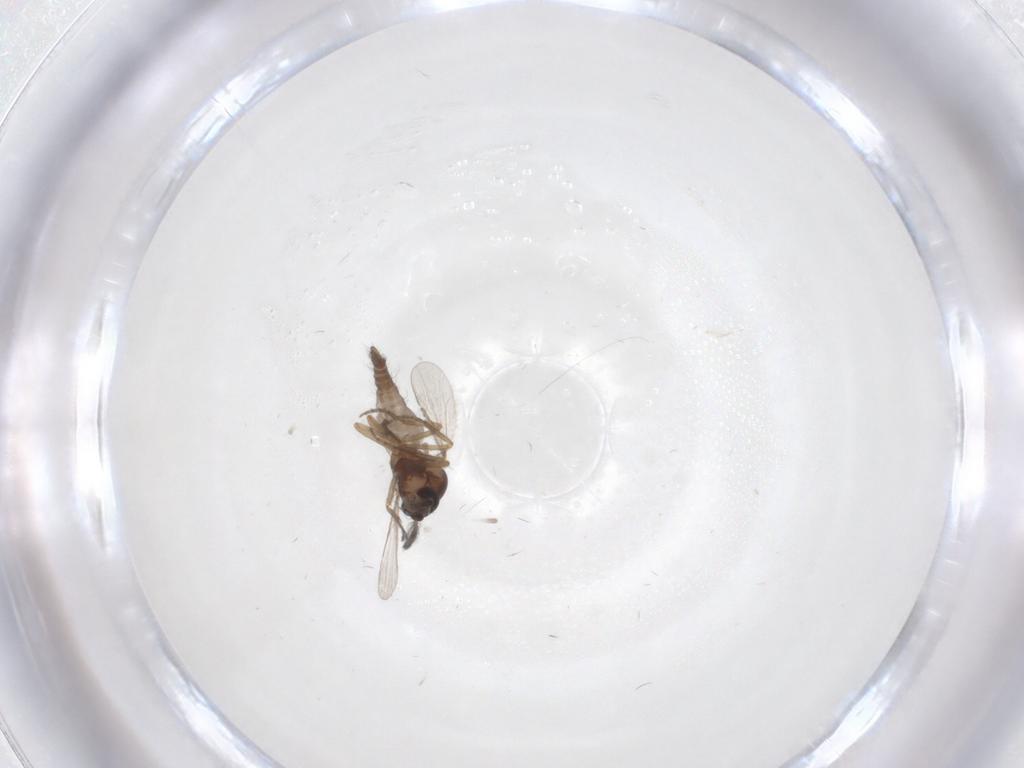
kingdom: Animalia
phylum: Arthropoda
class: Insecta
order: Diptera
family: Ceratopogonidae
